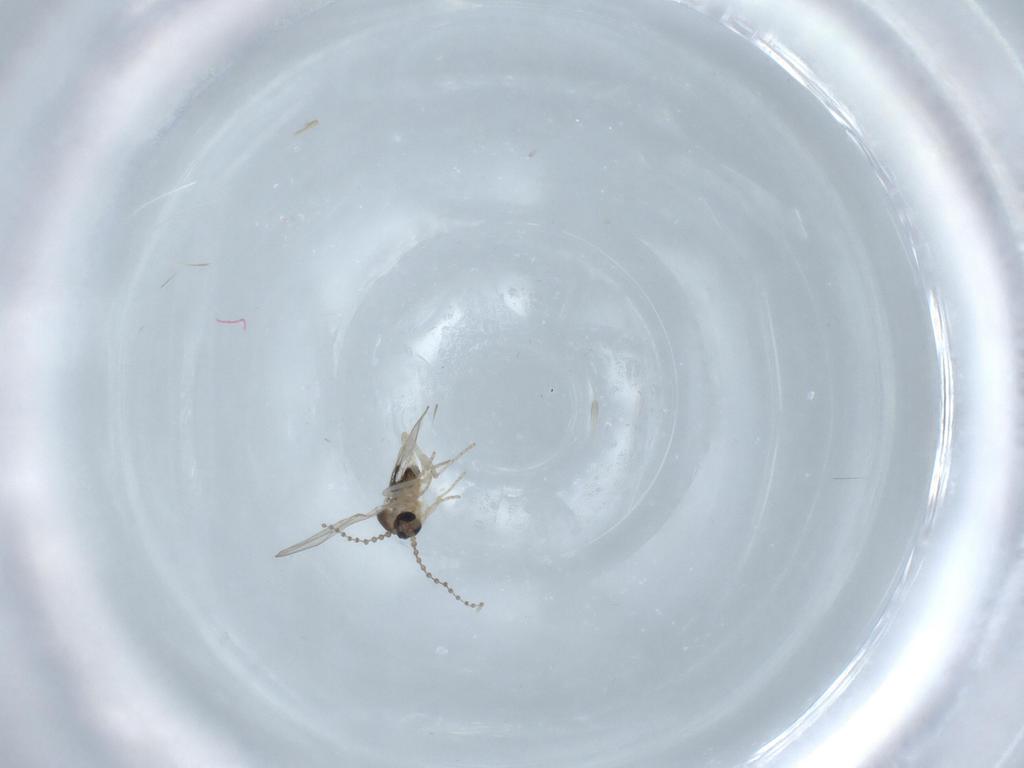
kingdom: Animalia
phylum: Arthropoda
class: Insecta
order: Diptera
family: Cecidomyiidae
